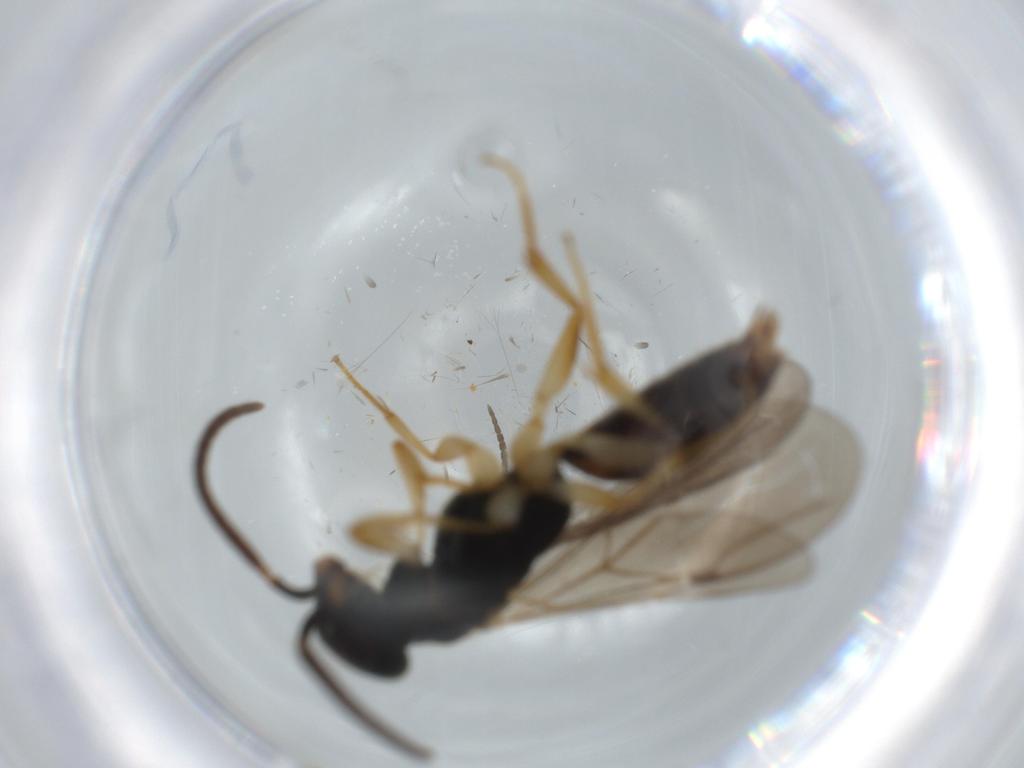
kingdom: Animalia
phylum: Arthropoda
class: Insecta
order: Hymenoptera
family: Bethylidae
